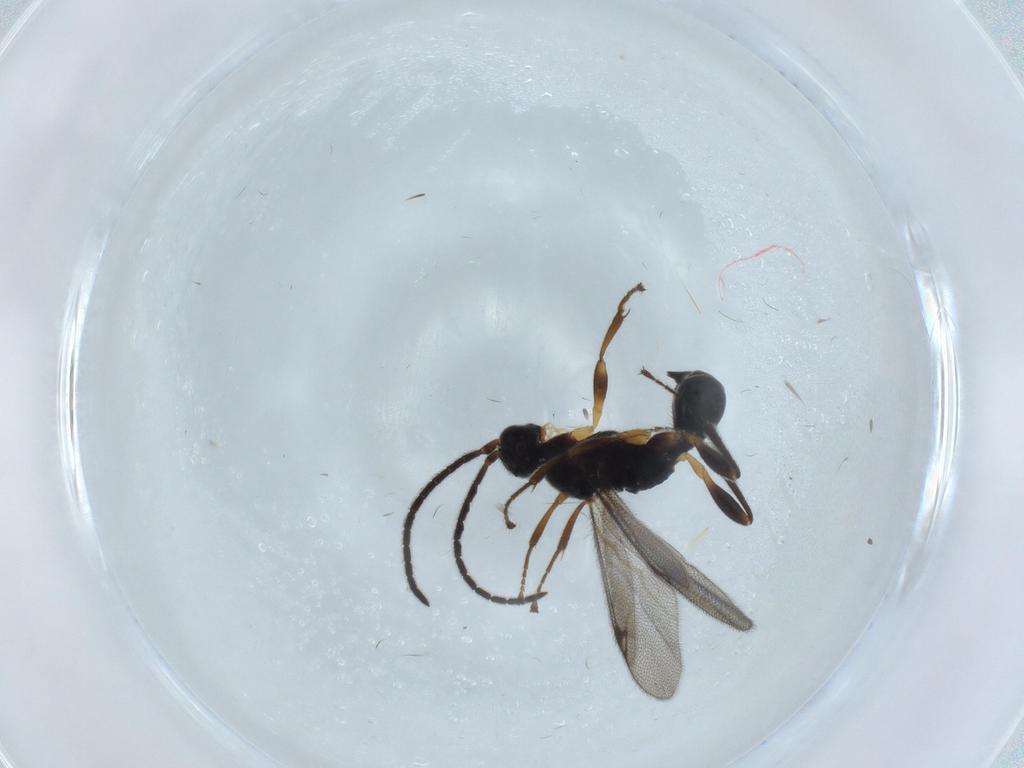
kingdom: Animalia
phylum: Arthropoda
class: Insecta
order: Hymenoptera
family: Proctotrupidae
